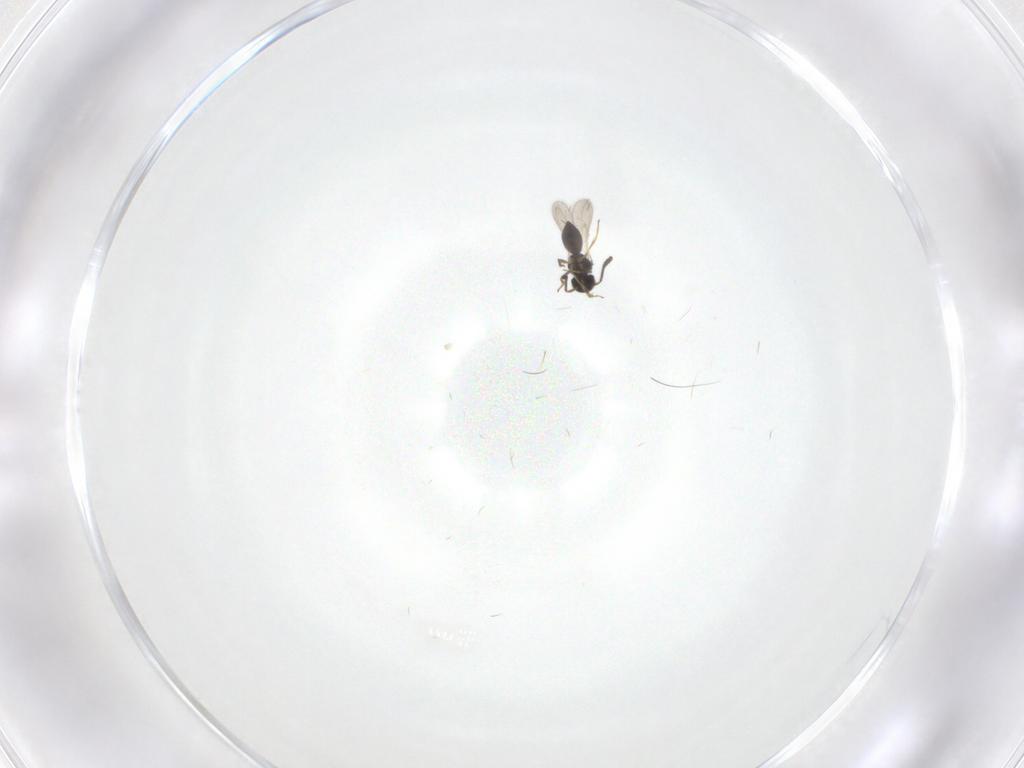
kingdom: Animalia
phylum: Arthropoda
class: Insecta
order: Hymenoptera
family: Scelionidae
